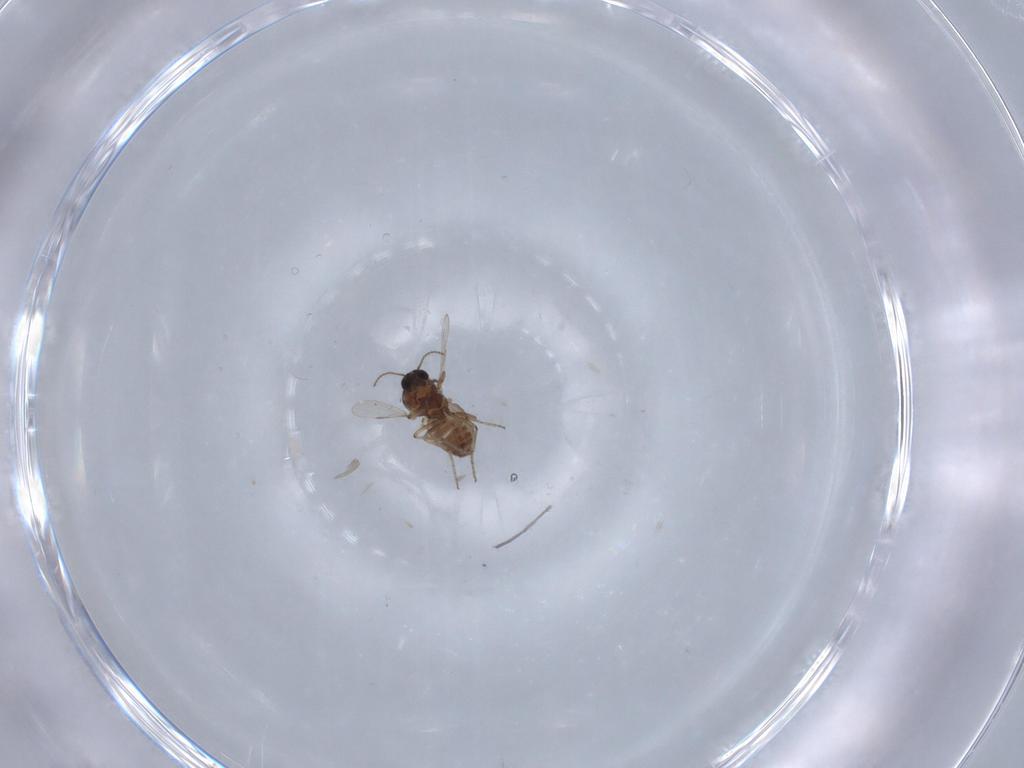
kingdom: Animalia
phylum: Arthropoda
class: Insecta
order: Diptera
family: Ceratopogonidae
